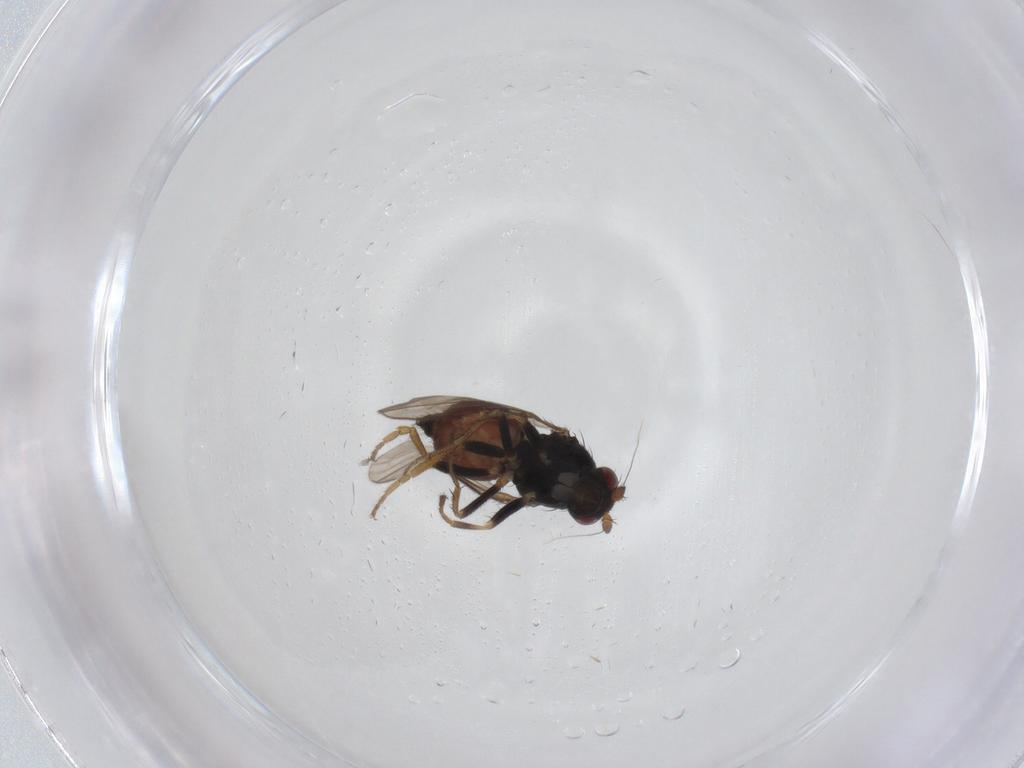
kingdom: Animalia
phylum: Arthropoda
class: Insecta
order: Diptera
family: Sphaeroceridae
